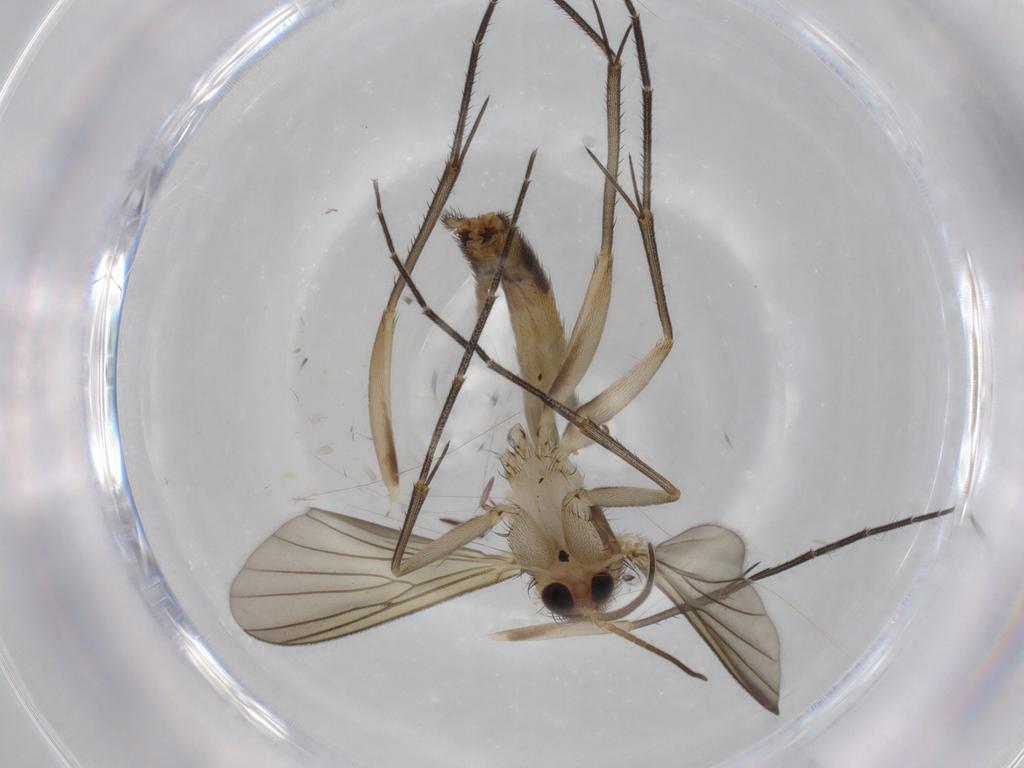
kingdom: Animalia
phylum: Arthropoda
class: Insecta
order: Diptera
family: Mycetophilidae
